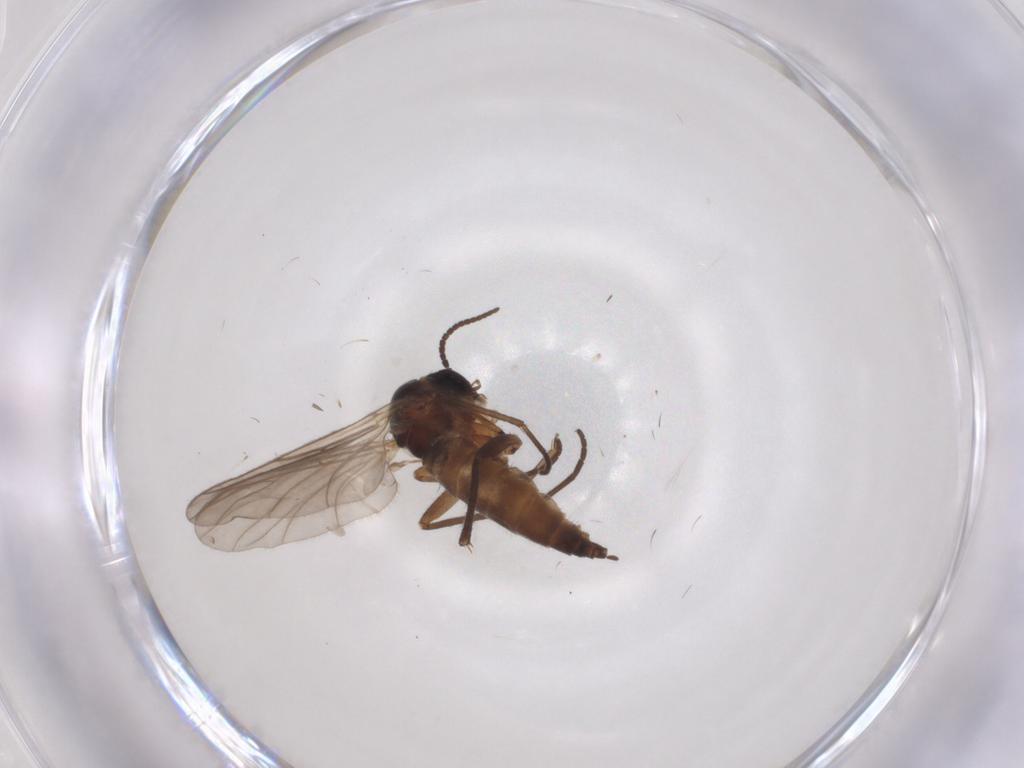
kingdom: Animalia
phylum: Arthropoda
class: Insecta
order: Diptera
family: Sciaridae
